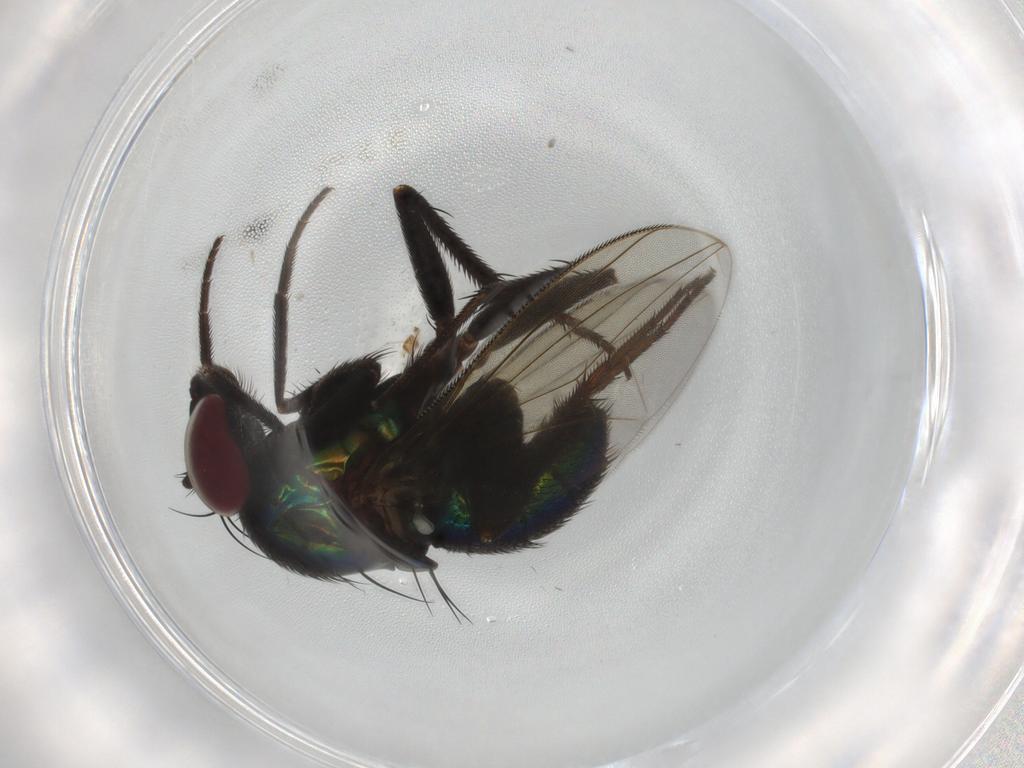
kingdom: Animalia
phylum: Arthropoda
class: Insecta
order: Diptera
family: Dolichopodidae
